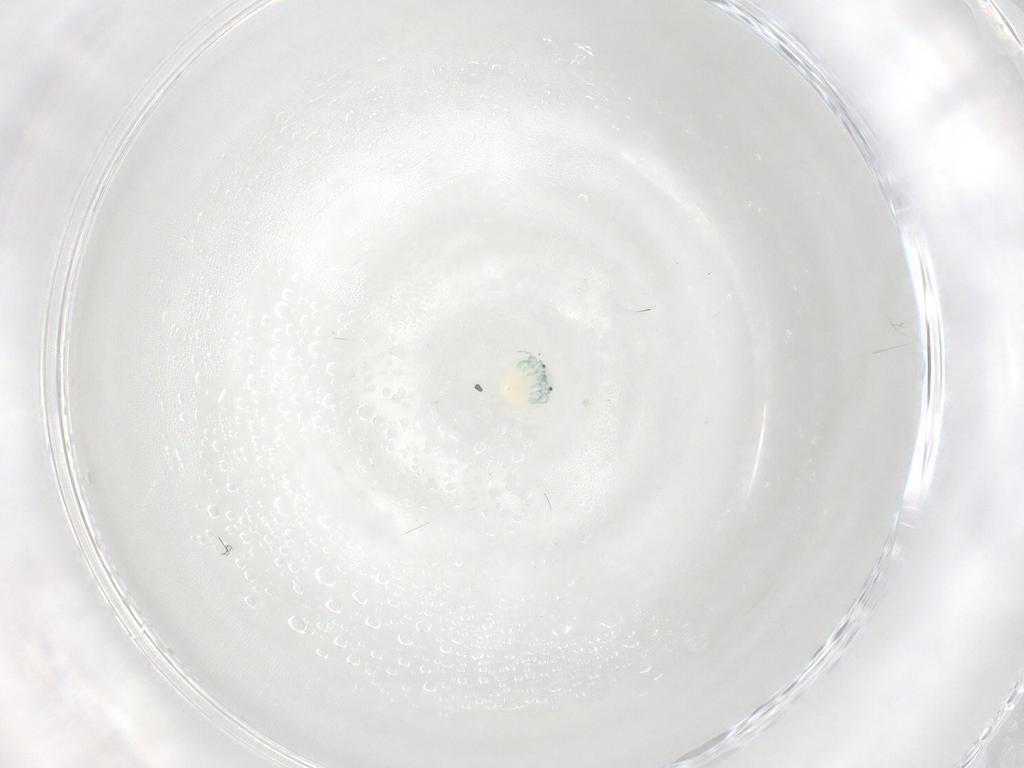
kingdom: Animalia
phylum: Arthropoda
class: Arachnida
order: Trombidiformes
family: Arrenuridae
